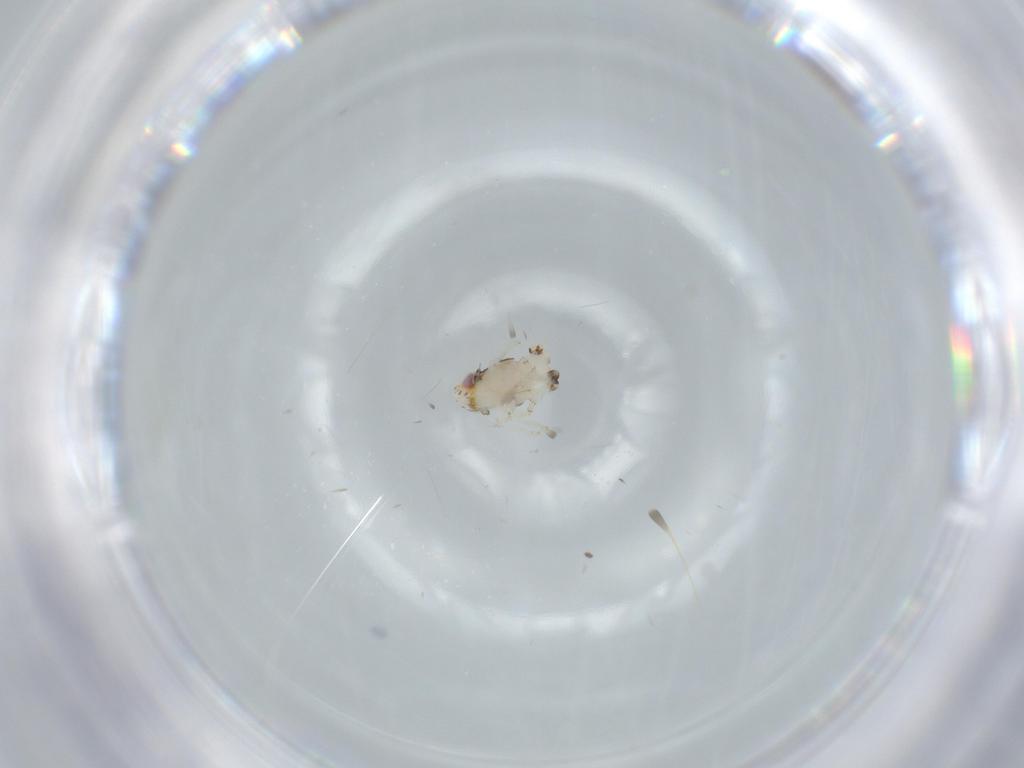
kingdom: Animalia
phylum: Arthropoda
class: Insecta
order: Hemiptera
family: Nogodinidae
